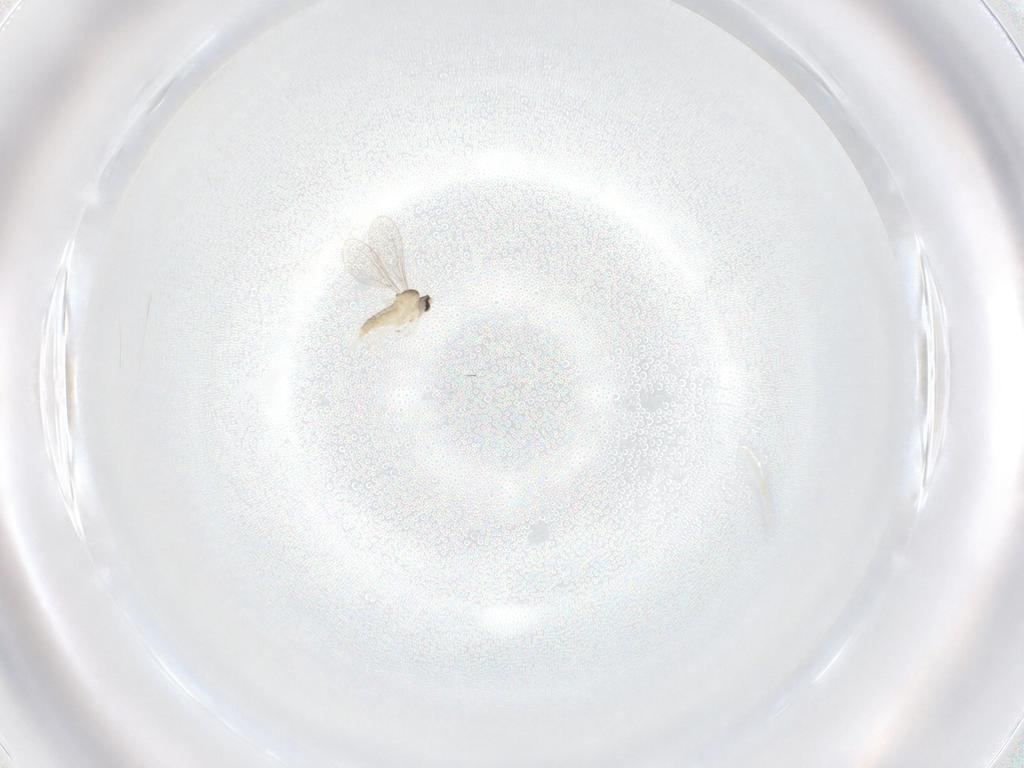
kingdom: Animalia
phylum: Arthropoda
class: Insecta
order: Diptera
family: Cecidomyiidae
